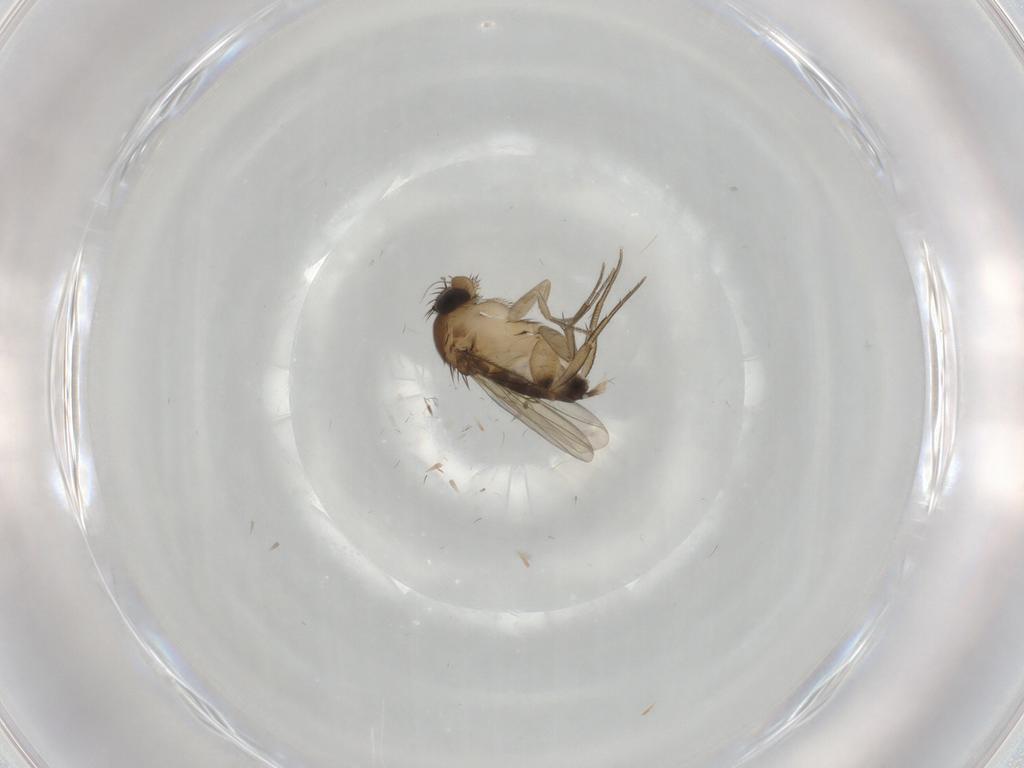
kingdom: Animalia
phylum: Arthropoda
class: Insecta
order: Diptera
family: Phoridae
